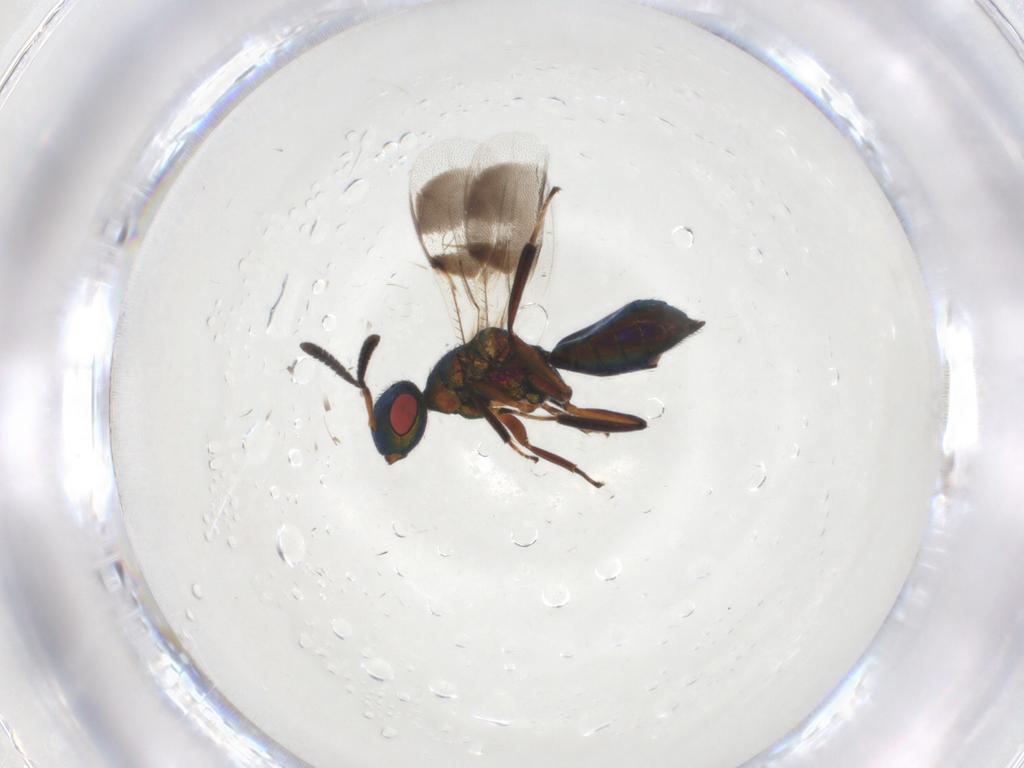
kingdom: Animalia
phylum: Arthropoda
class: Insecta
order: Hymenoptera
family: Pteromalidae
